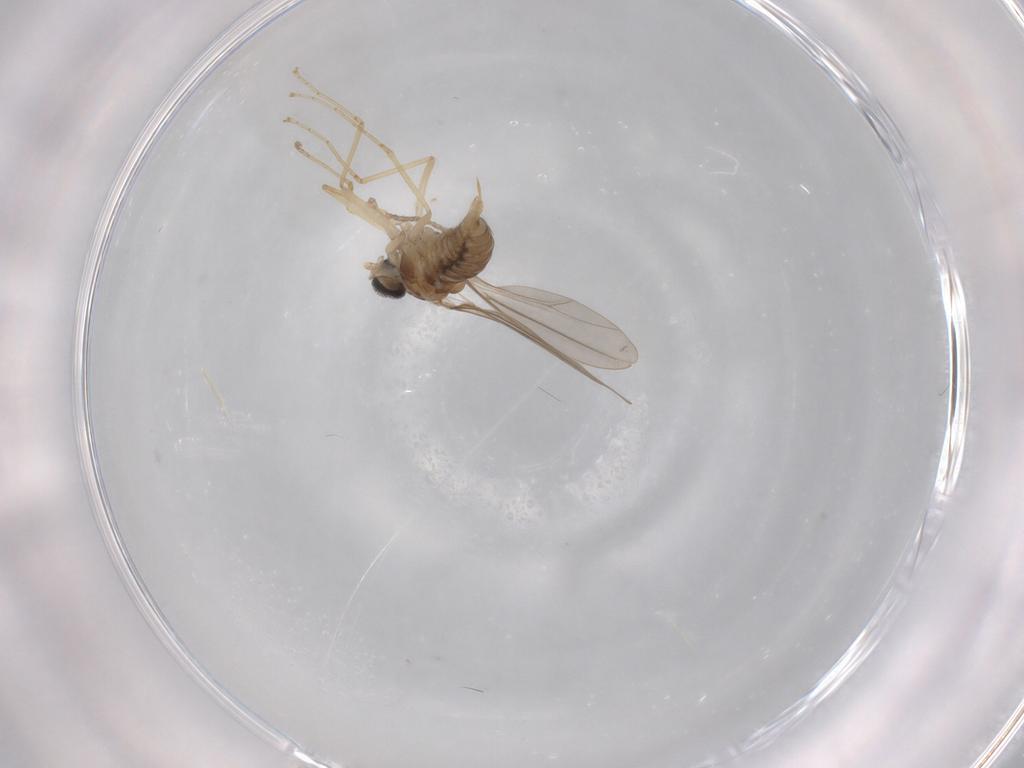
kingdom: Animalia
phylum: Arthropoda
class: Insecta
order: Diptera
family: Cecidomyiidae
